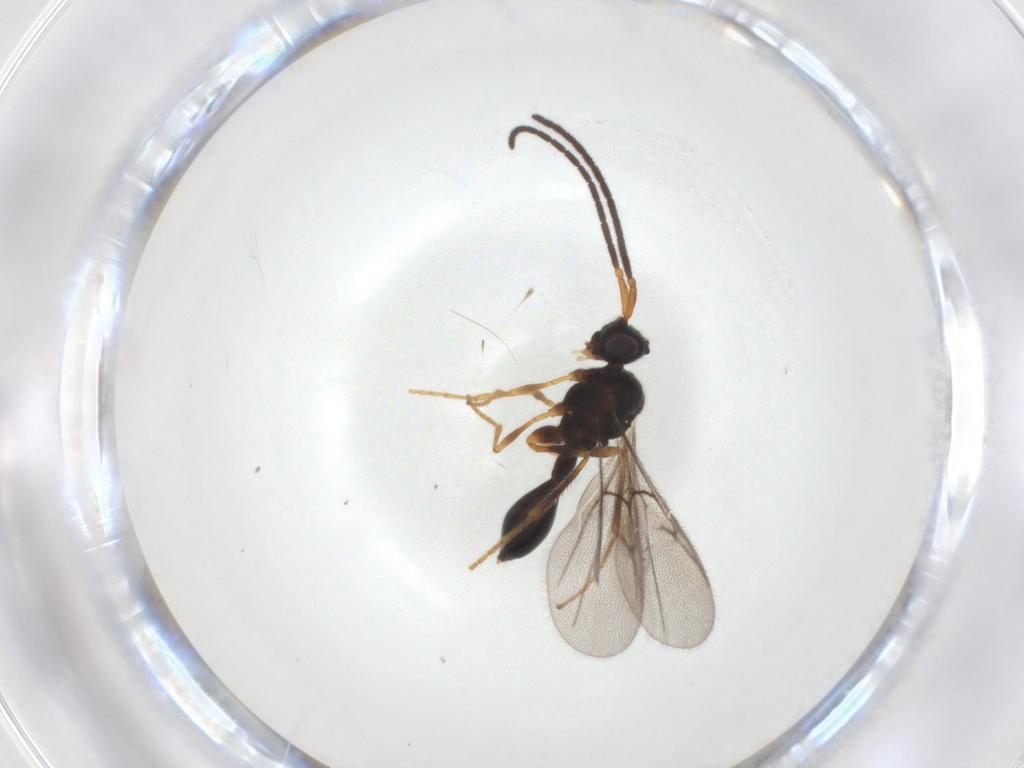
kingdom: Animalia
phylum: Arthropoda
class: Insecta
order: Hymenoptera
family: Diapriidae
